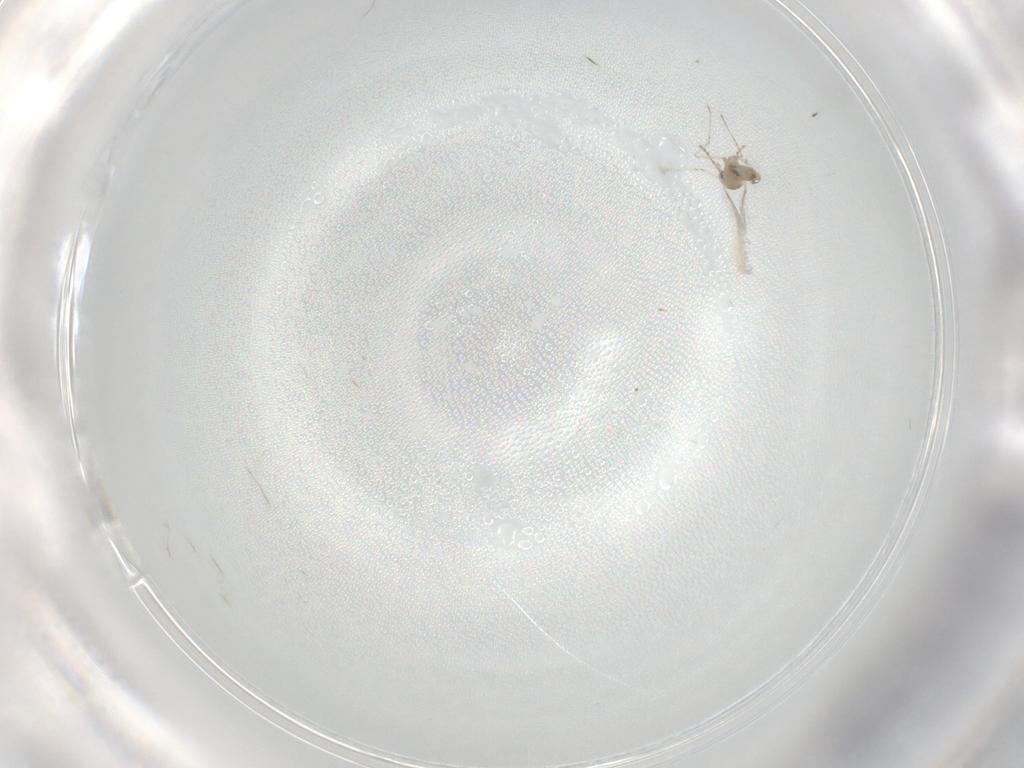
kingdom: Animalia
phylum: Arthropoda
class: Insecta
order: Diptera
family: Cecidomyiidae
